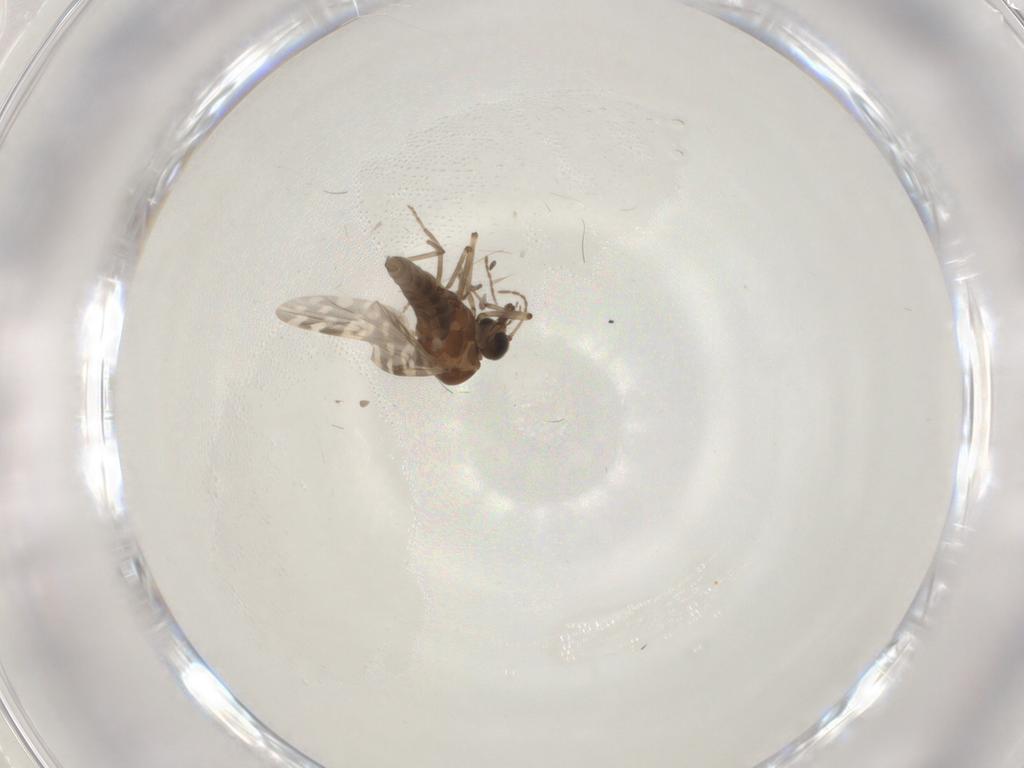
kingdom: Animalia
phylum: Arthropoda
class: Insecta
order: Diptera
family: Bibionidae
